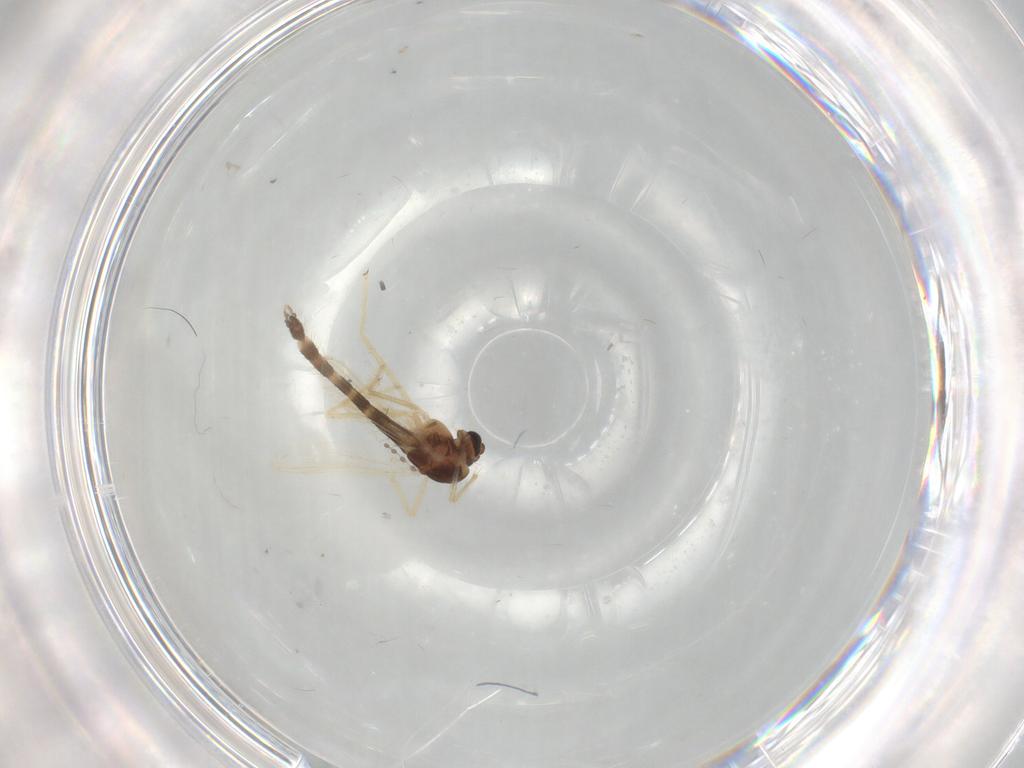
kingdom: Animalia
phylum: Arthropoda
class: Insecta
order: Diptera
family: Chironomidae
